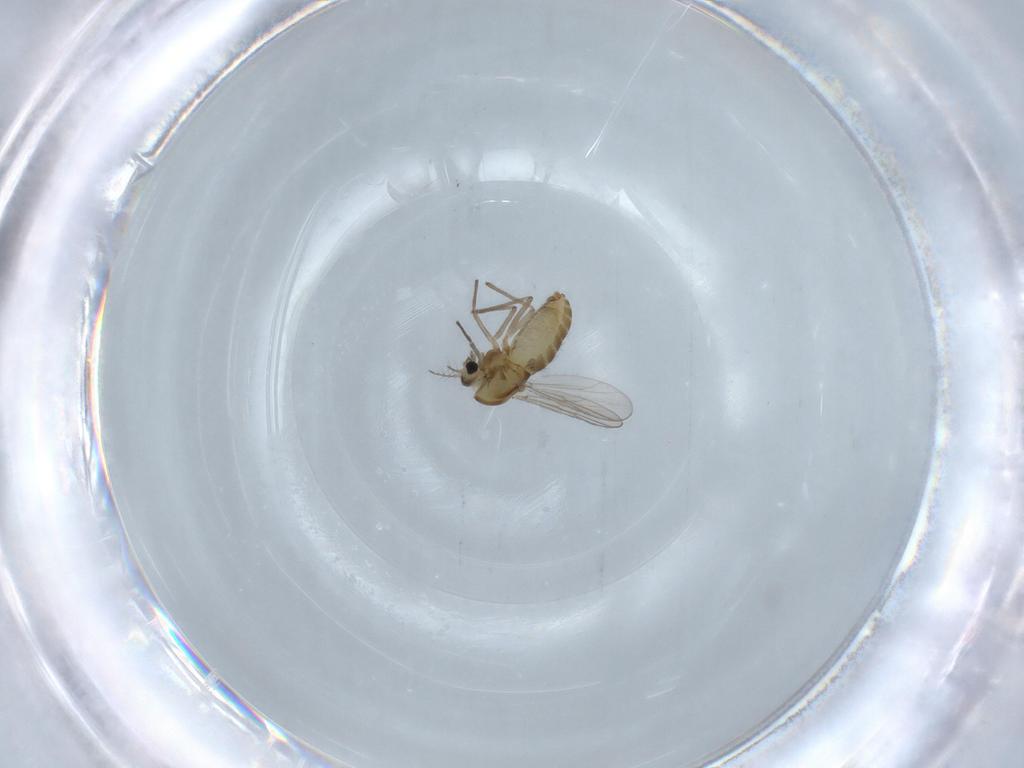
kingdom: Animalia
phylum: Arthropoda
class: Insecta
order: Diptera
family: Chironomidae
